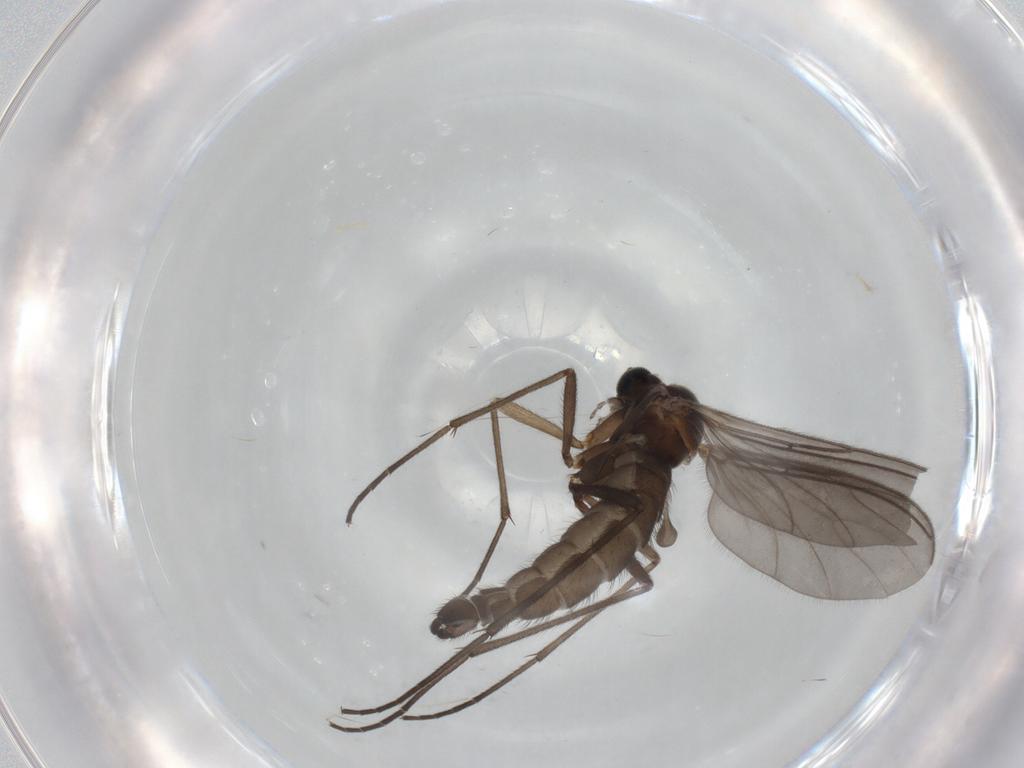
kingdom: Animalia
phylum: Arthropoda
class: Insecta
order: Diptera
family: Sciaridae
